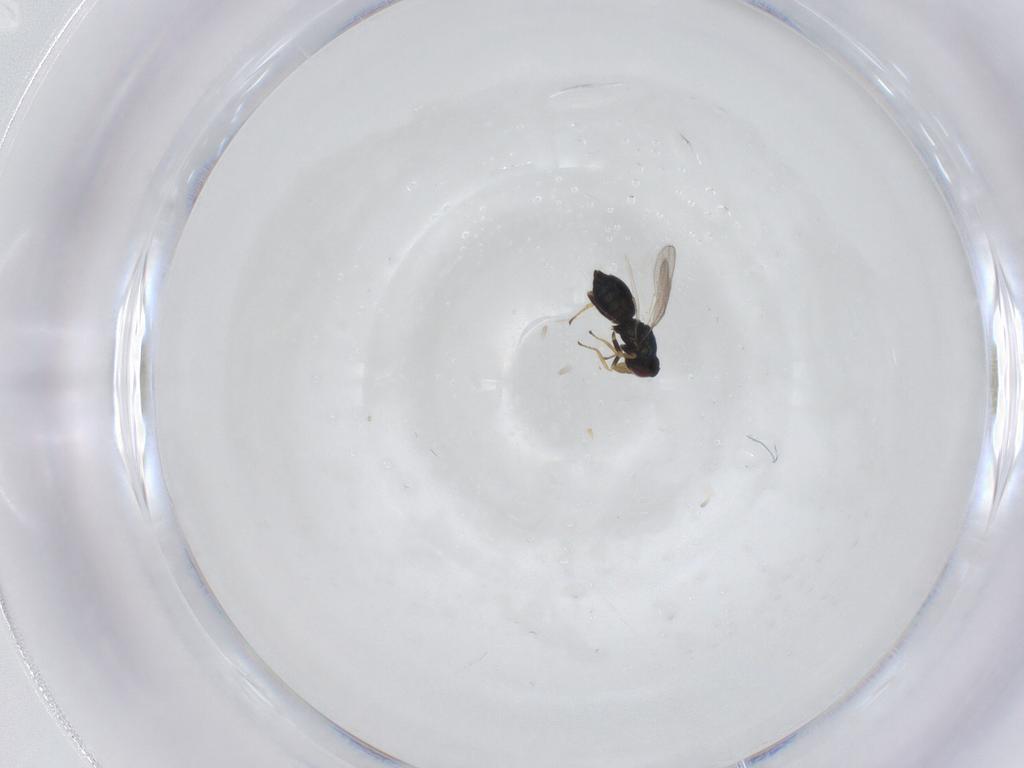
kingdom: Animalia
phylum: Arthropoda
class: Insecta
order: Hymenoptera
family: Eulophidae
